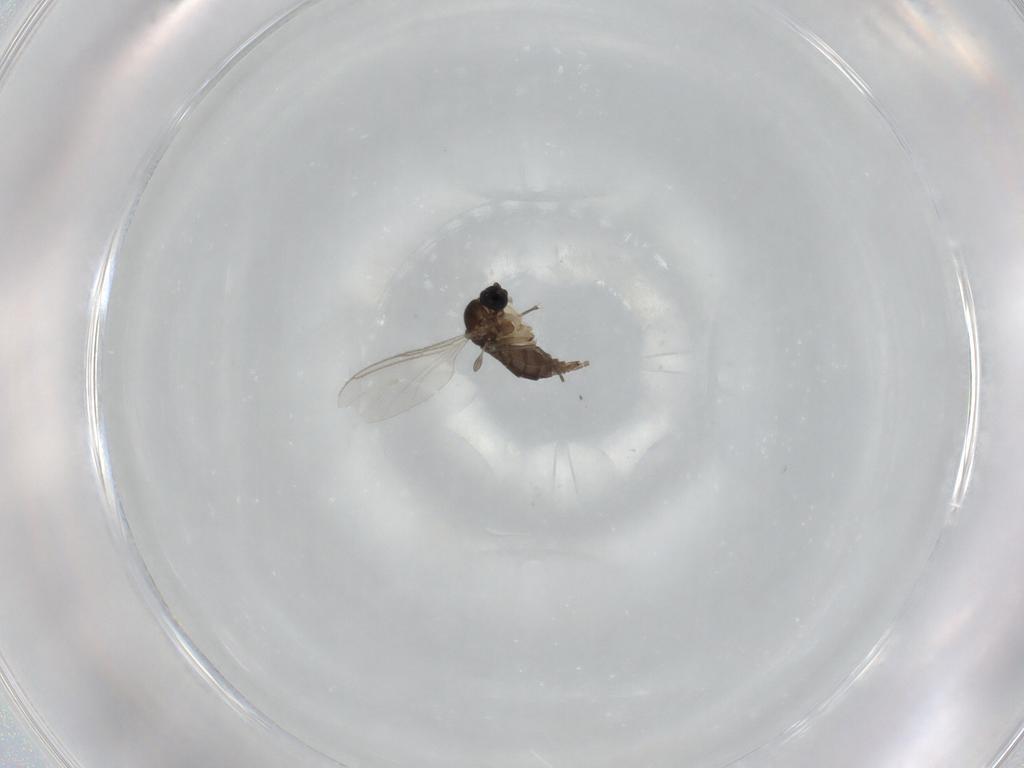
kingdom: Animalia
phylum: Arthropoda
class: Insecta
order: Diptera
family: Sciaridae
